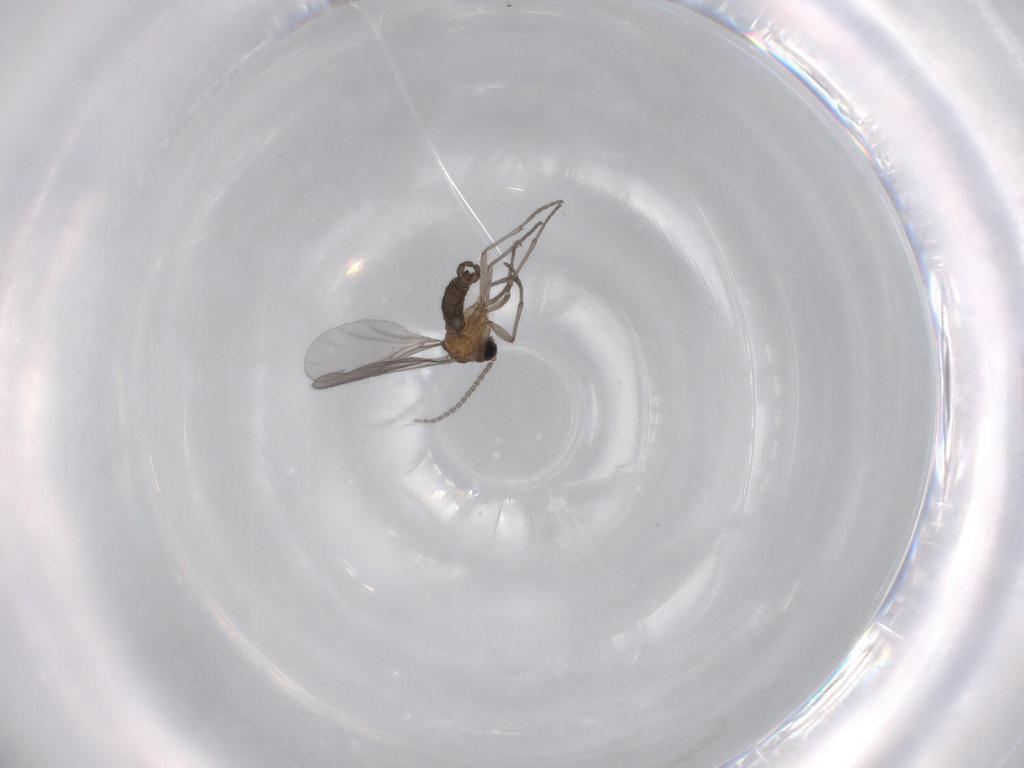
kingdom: Animalia
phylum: Arthropoda
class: Insecta
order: Diptera
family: Sciaridae
